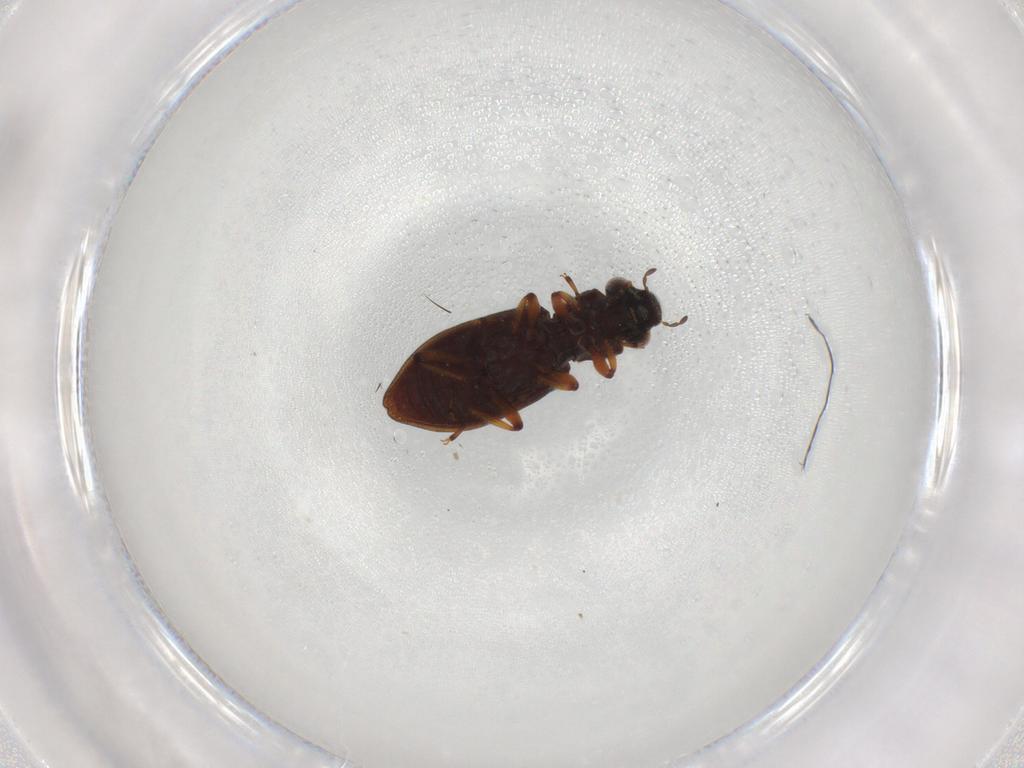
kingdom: Animalia
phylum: Arthropoda
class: Insecta
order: Coleoptera
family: Hydrophilidae
